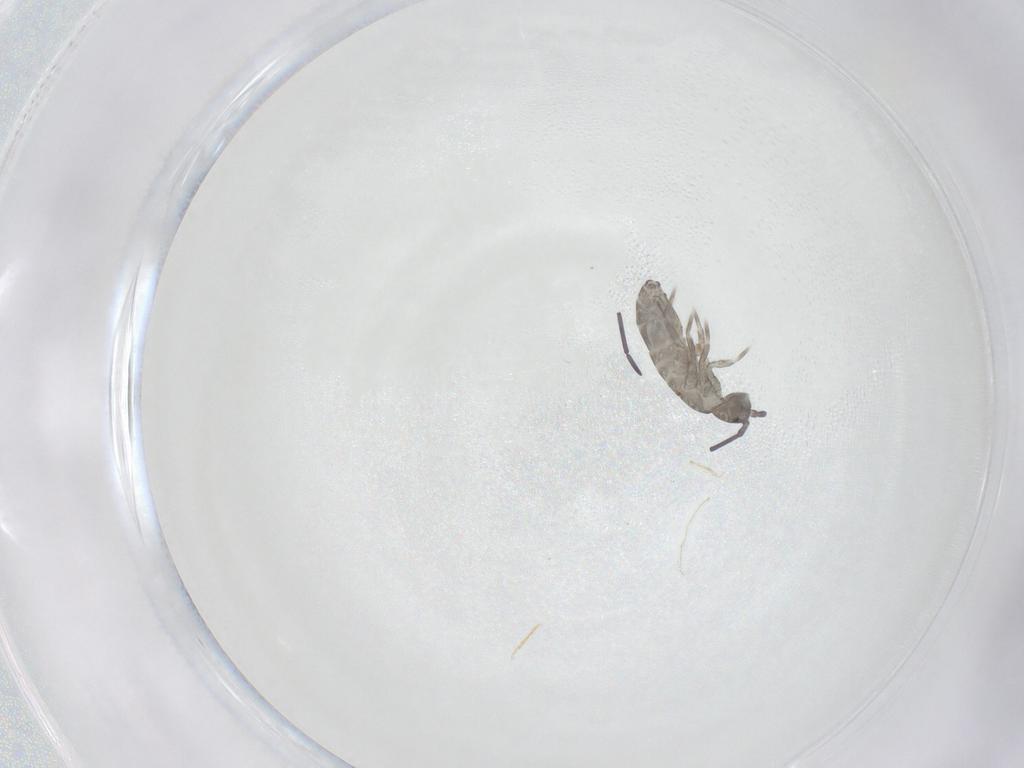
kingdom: Animalia
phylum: Arthropoda
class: Collembola
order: Entomobryomorpha
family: Tomoceridae
